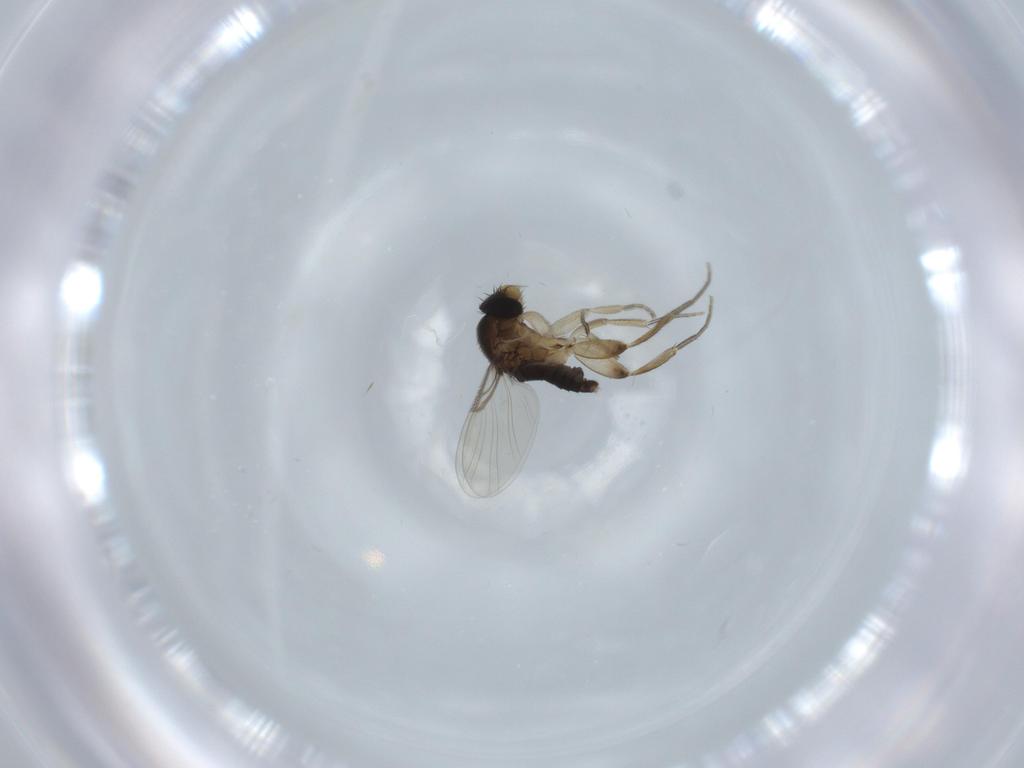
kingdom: Animalia
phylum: Arthropoda
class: Insecta
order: Diptera
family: Phoridae
